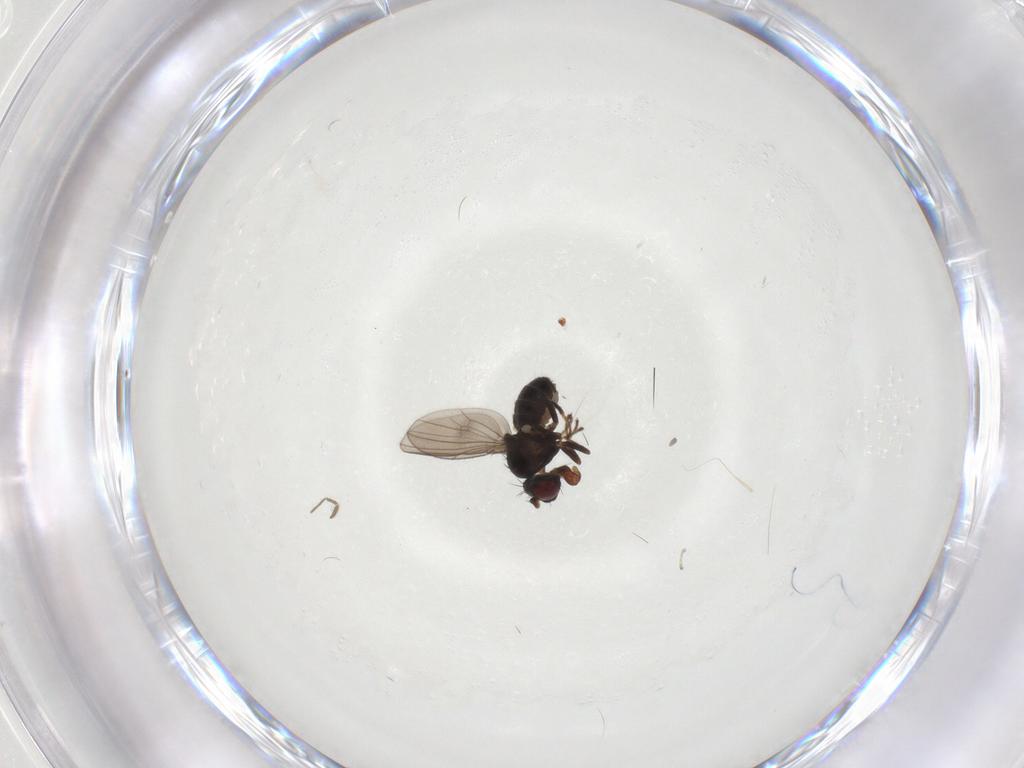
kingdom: Animalia
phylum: Arthropoda
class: Insecta
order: Diptera
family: Ephydridae
